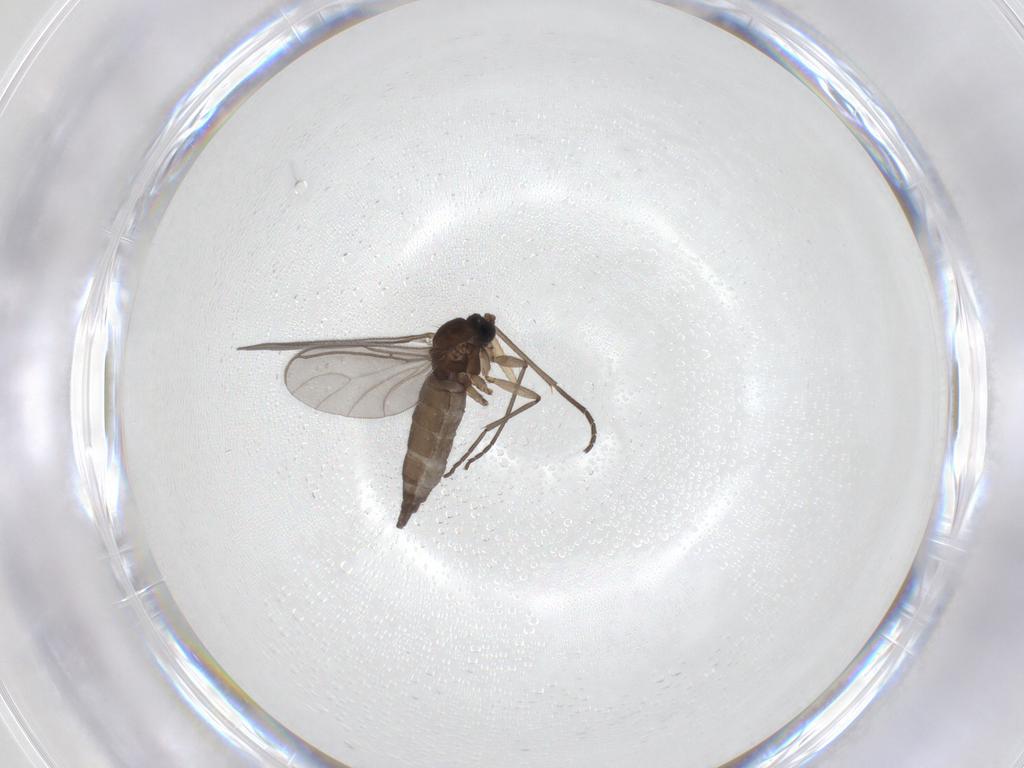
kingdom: Animalia
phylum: Arthropoda
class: Insecta
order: Diptera
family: Sciaridae
